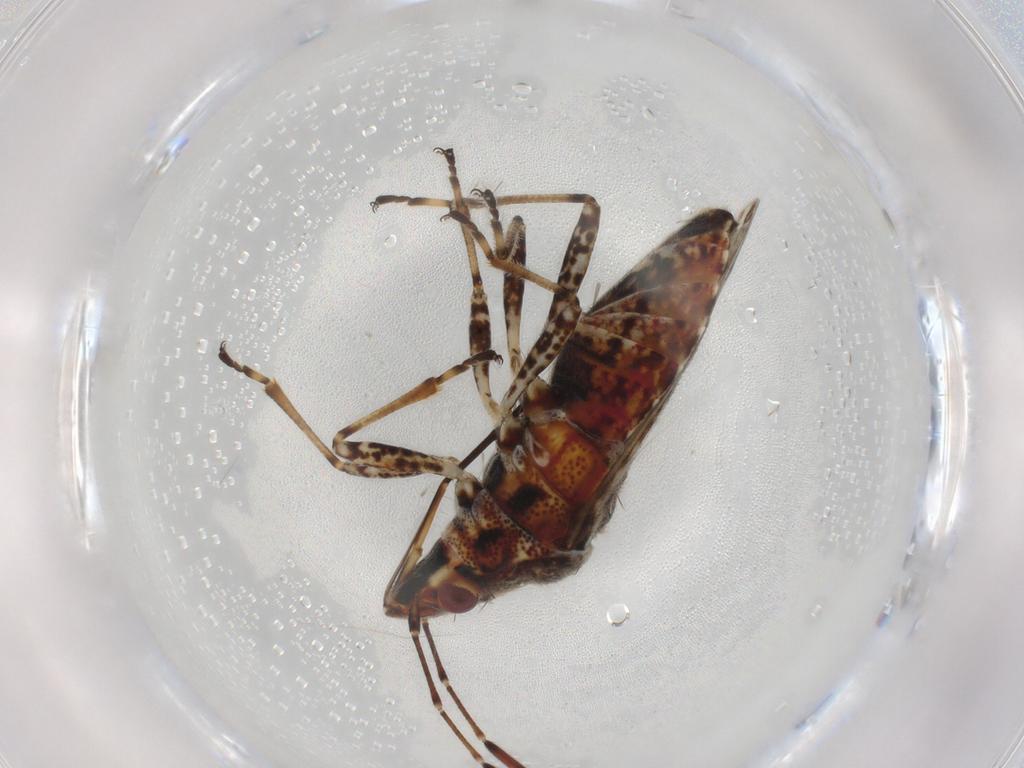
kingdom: Animalia
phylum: Arthropoda
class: Insecta
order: Hemiptera
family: Lygaeidae
